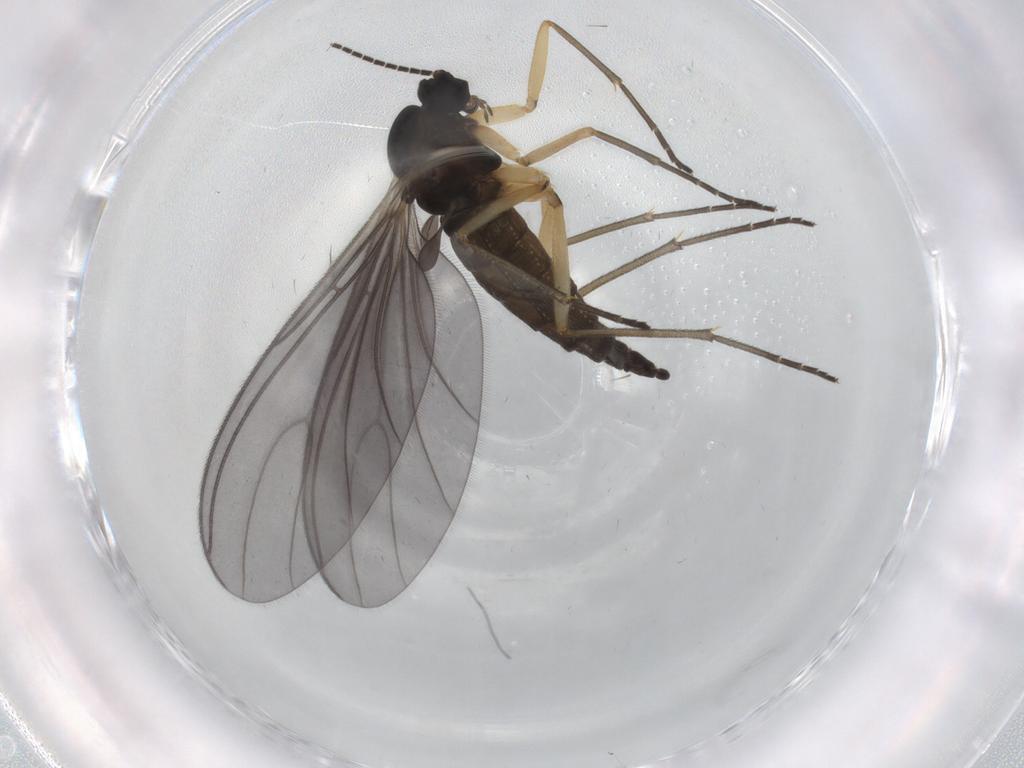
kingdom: Animalia
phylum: Arthropoda
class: Insecta
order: Diptera
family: Sciaridae
